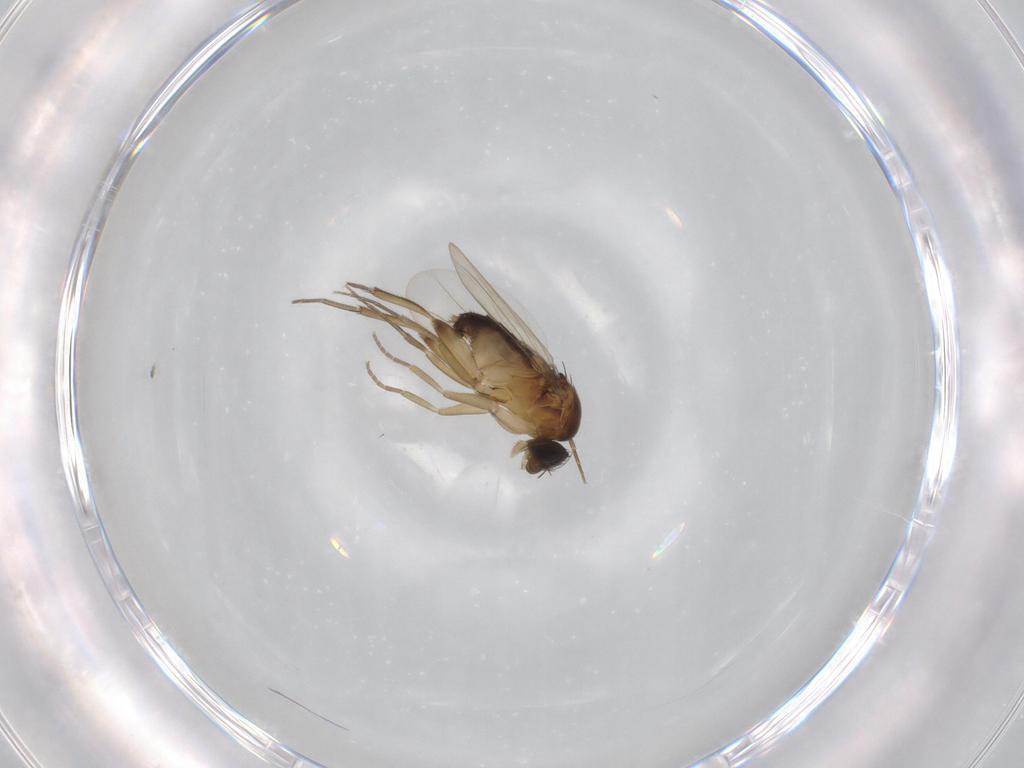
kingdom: Animalia
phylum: Arthropoda
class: Insecta
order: Diptera
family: Phoridae
